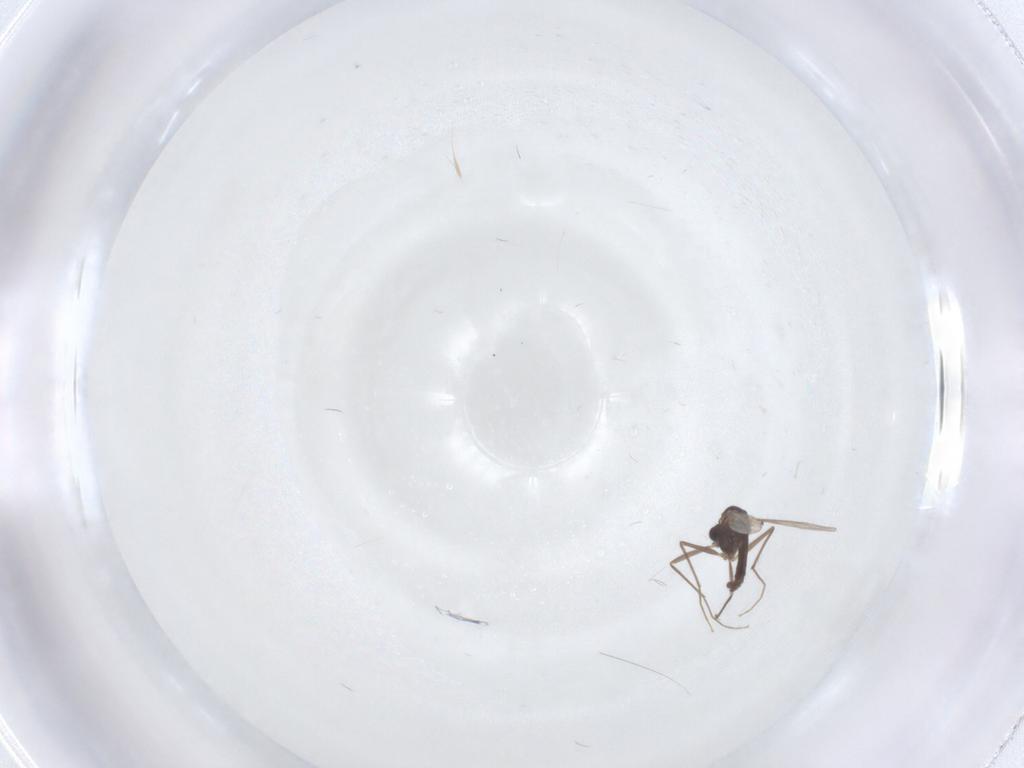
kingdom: Animalia
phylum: Arthropoda
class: Insecta
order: Diptera
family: Chironomidae
